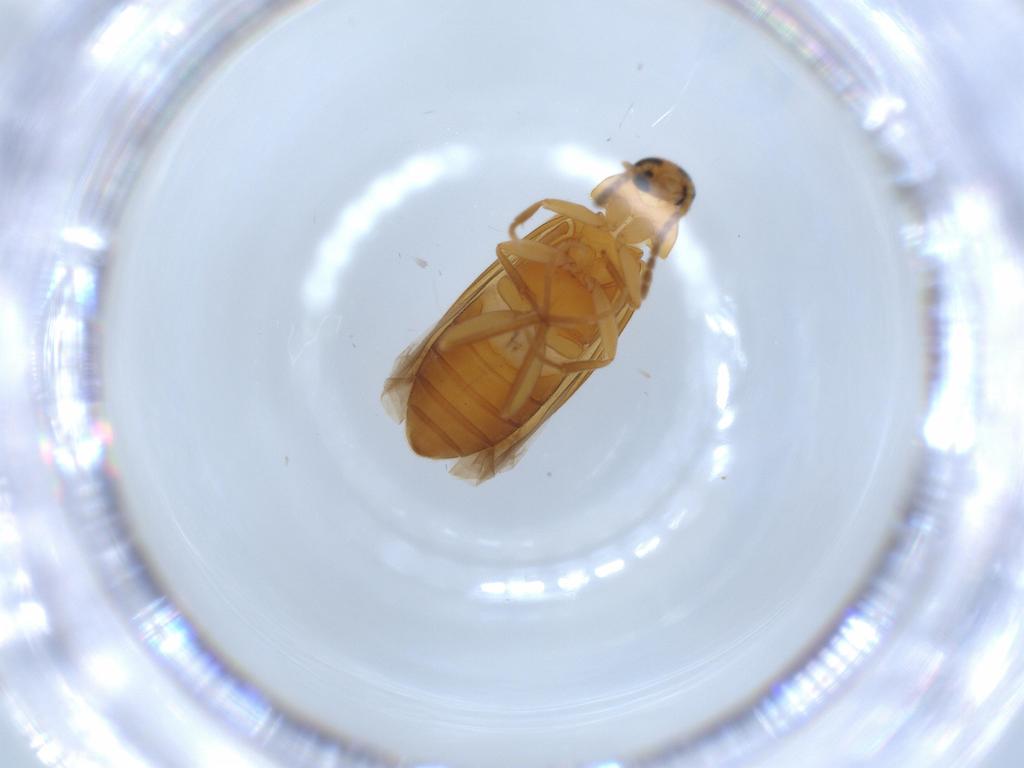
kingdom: Animalia
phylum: Arthropoda
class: Insecta
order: Coleoptera
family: Scraptiidae
